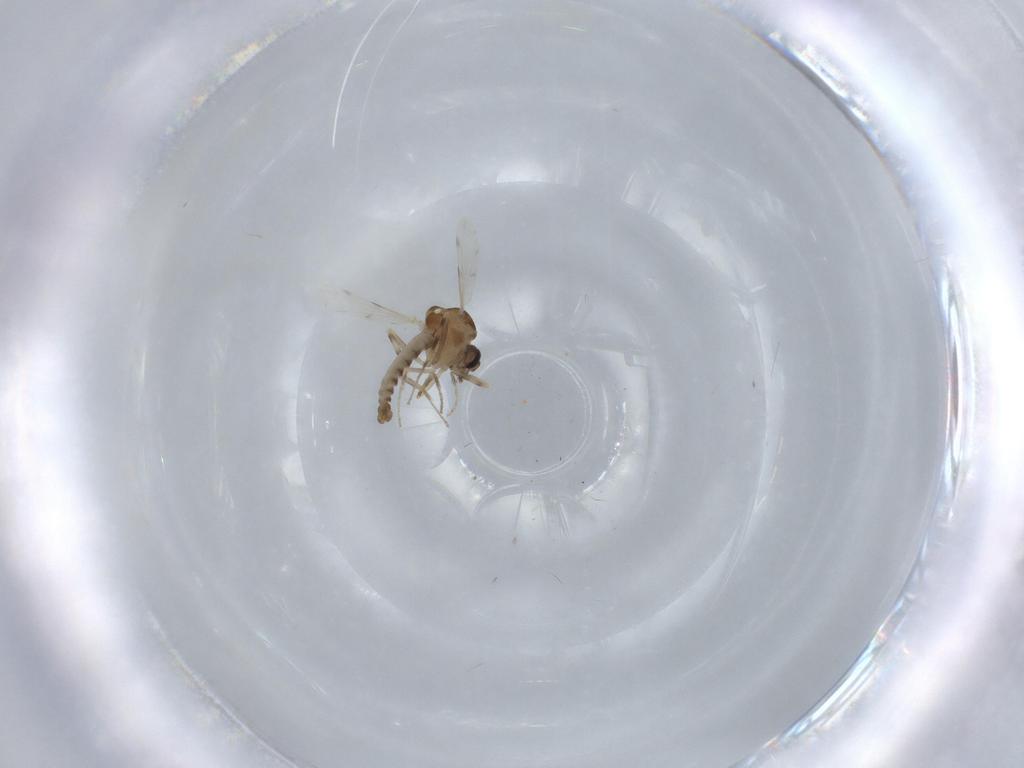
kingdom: Animalia
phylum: Arthropoda
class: Insecta
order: Diptera
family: Ceratopogonidae
